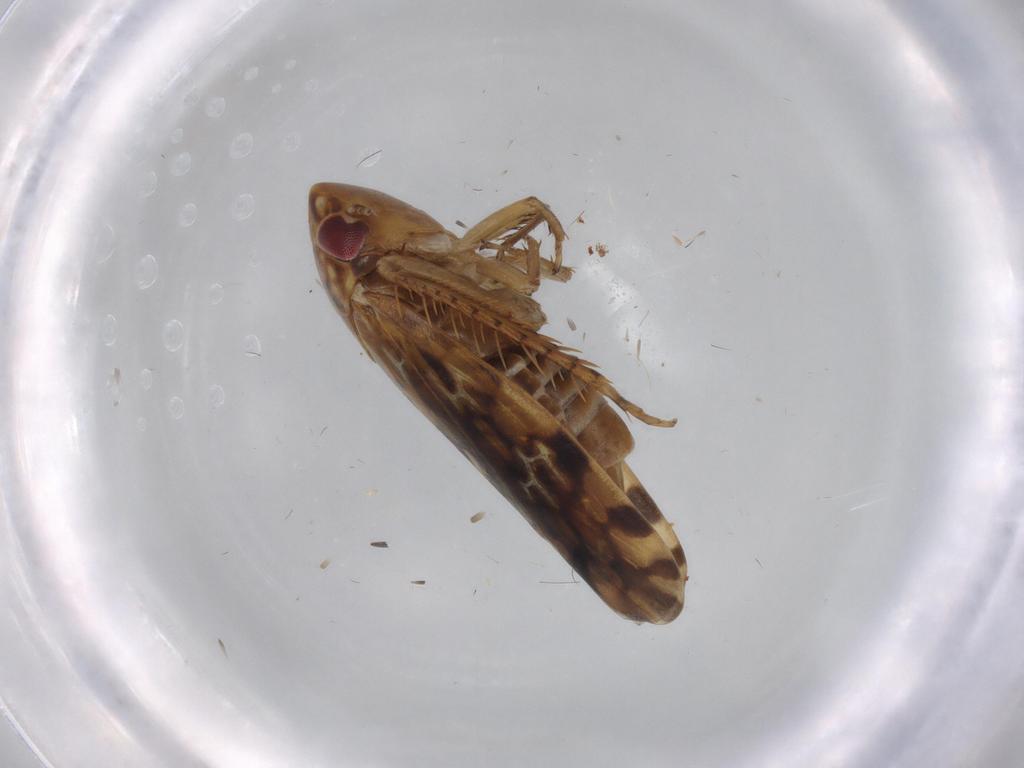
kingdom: Animalia
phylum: Arthropoda
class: Insecta
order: Hemiptera
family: Cicadellidae
